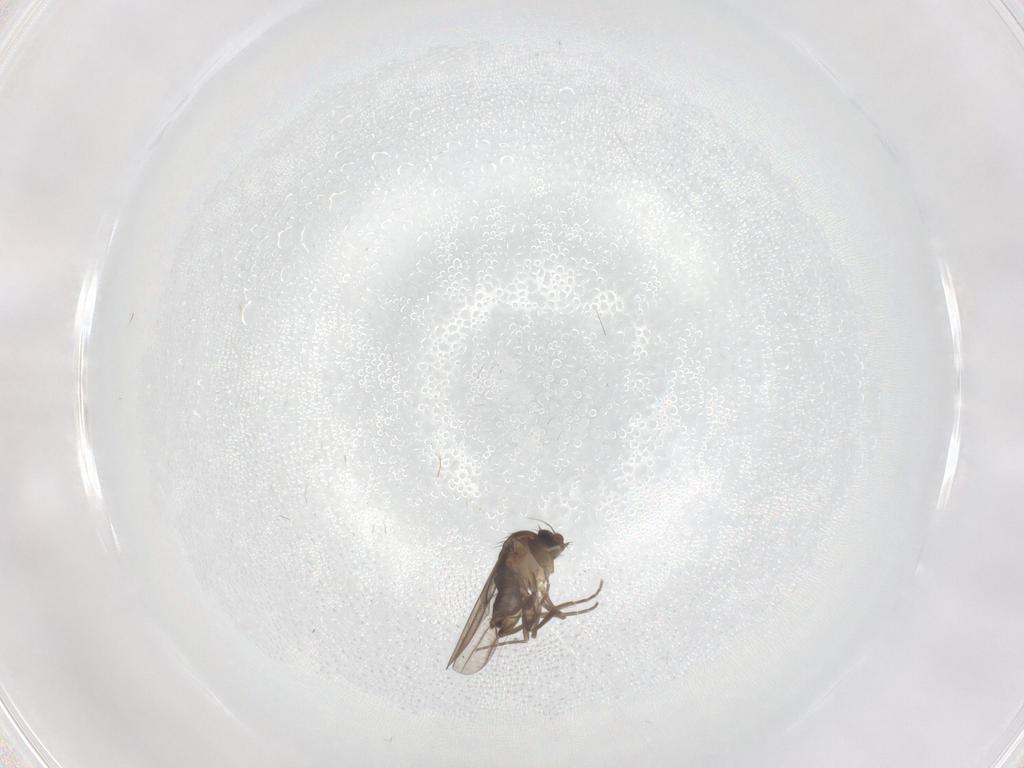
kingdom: Animalia
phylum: Arthropoda
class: Insecta
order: Diptera
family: Phoridae
